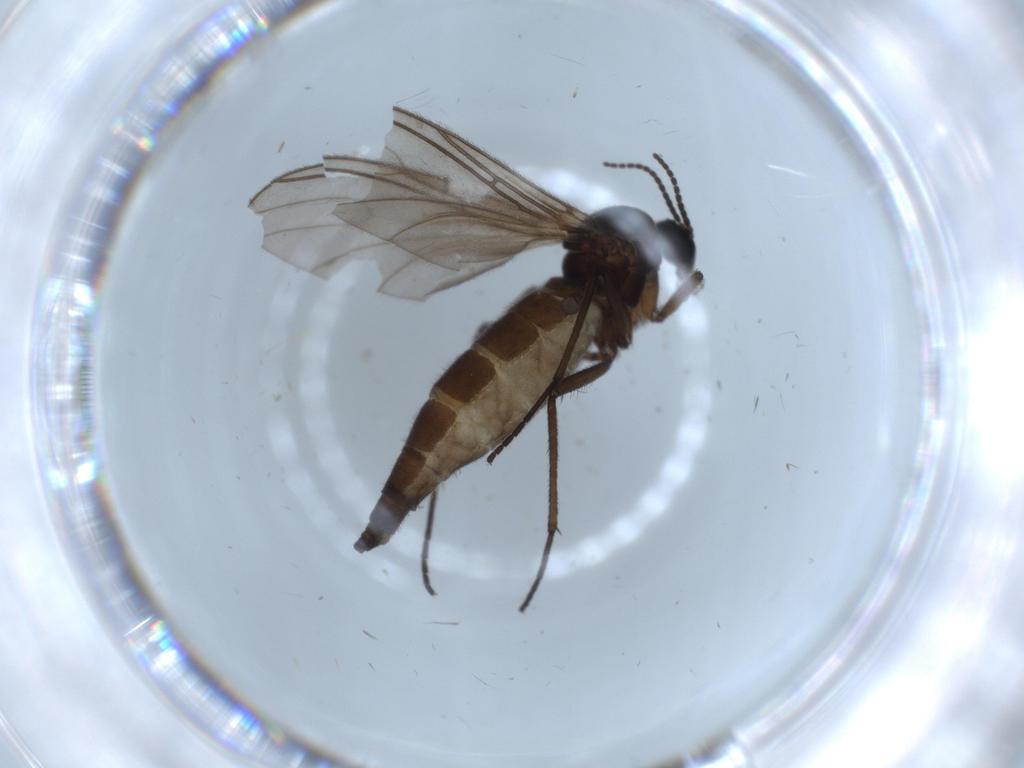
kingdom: Animalia
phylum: Arthropoda
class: Insecta
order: Diptera
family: Sciaridae
